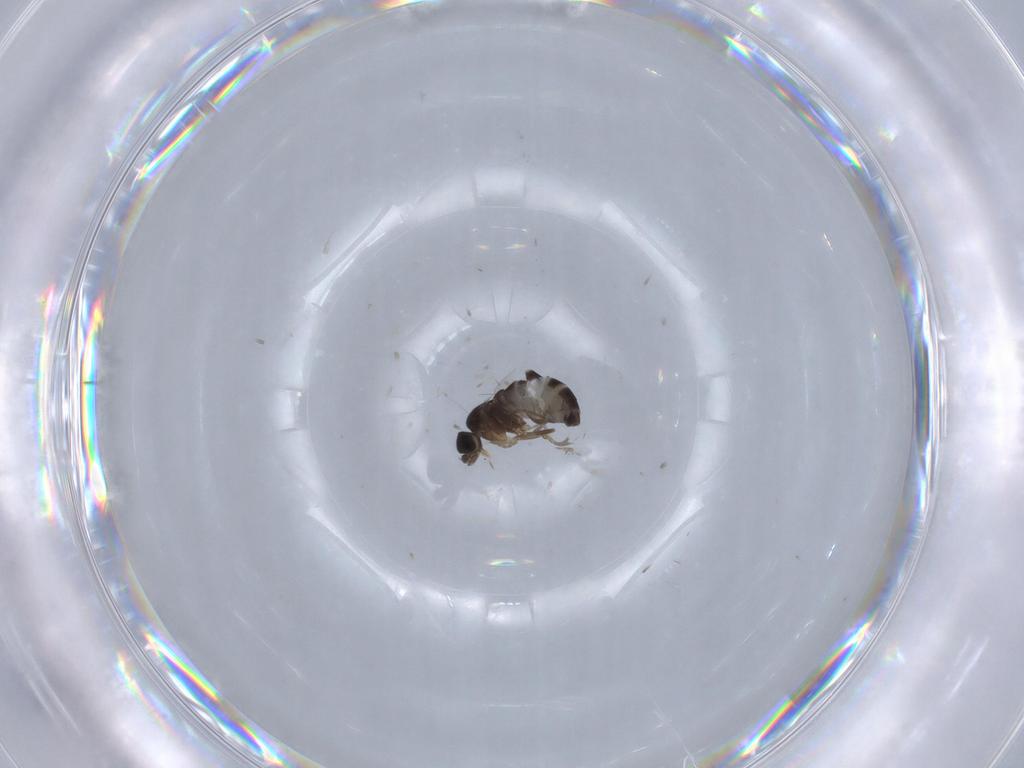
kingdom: Animalia
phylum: Arthropoda
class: Insecta
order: Diptera
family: Phoridae
